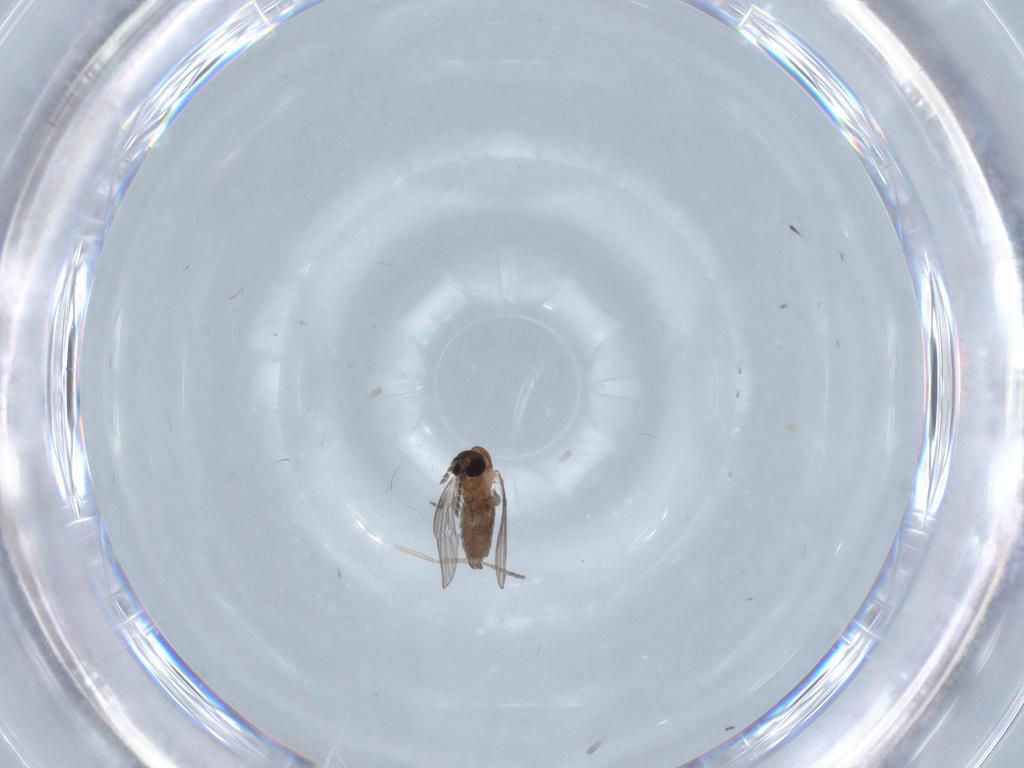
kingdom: Animalia
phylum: Arthropoda
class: Insecta
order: Diptera
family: Psychodidae
